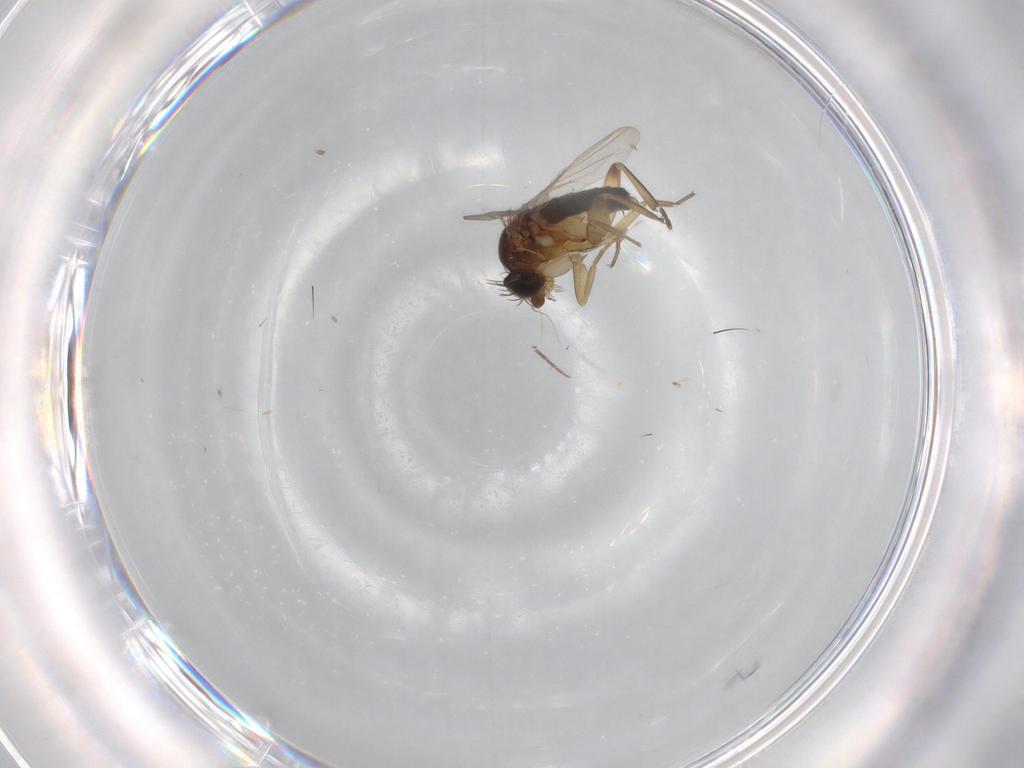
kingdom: Animalia
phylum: Arthropoda
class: Insecta
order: Diptera
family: Phoridae
